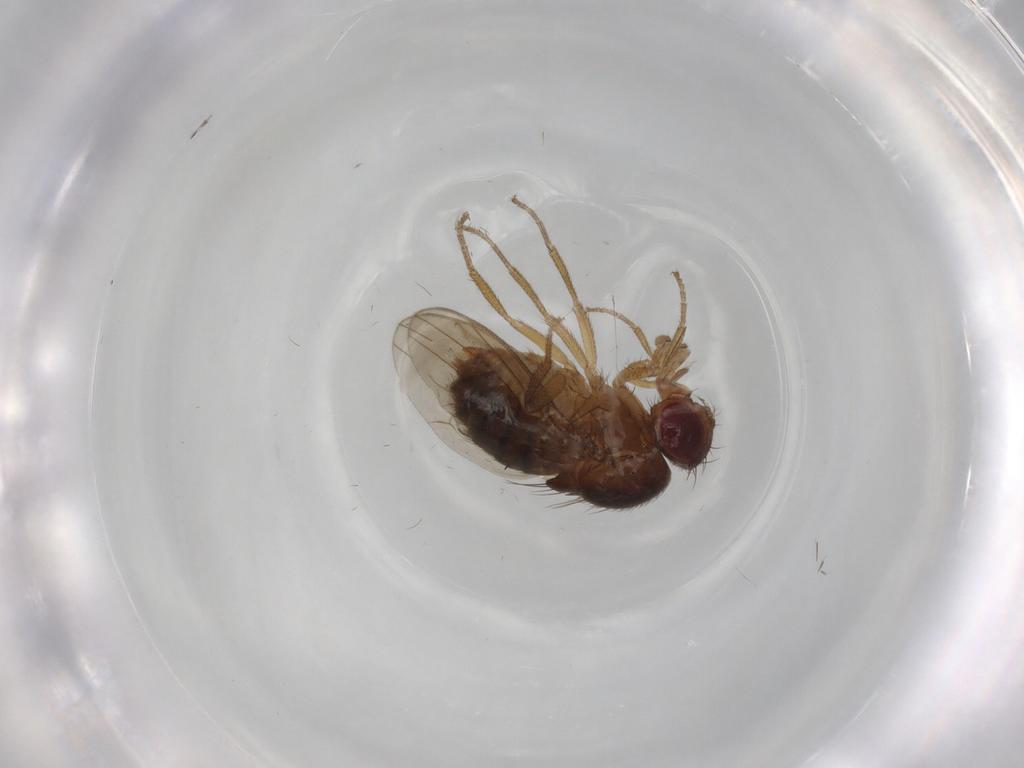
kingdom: Animalia
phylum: Arthropoda
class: Insecta
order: Diptera
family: Drosophilidae
